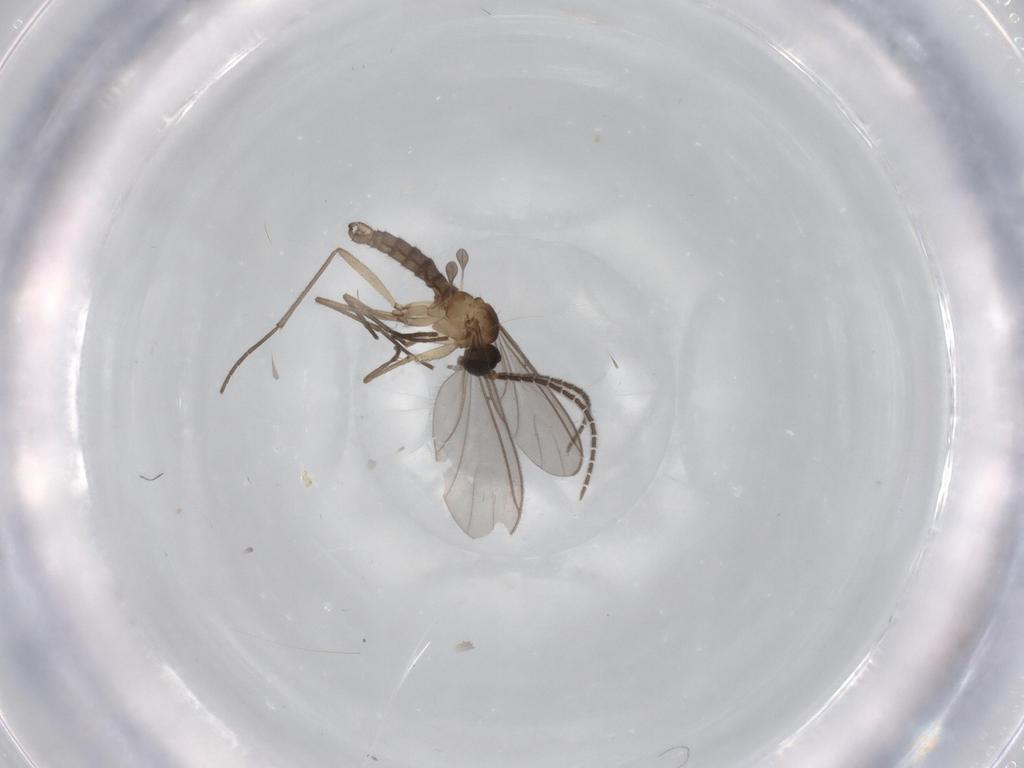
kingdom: Animalia
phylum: Arthropoda
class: Insecta
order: Diptera
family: Sciaridae
